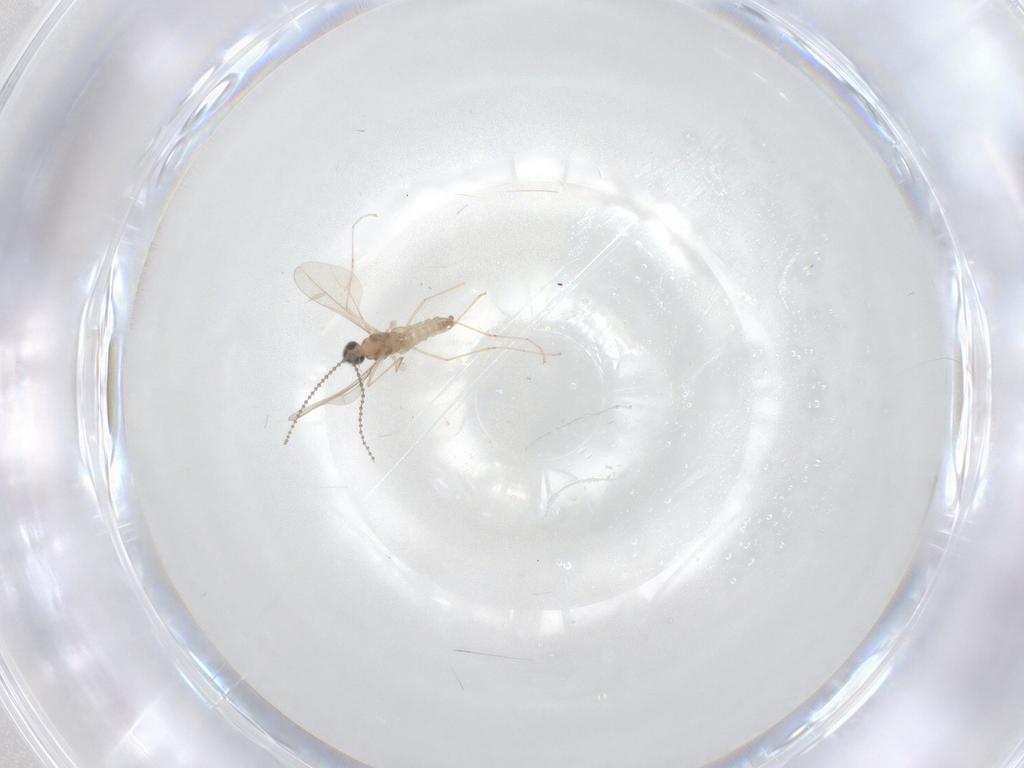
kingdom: Animalia
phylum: Arthropoda
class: Insecta
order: Diptera
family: Cecidomyiidae
